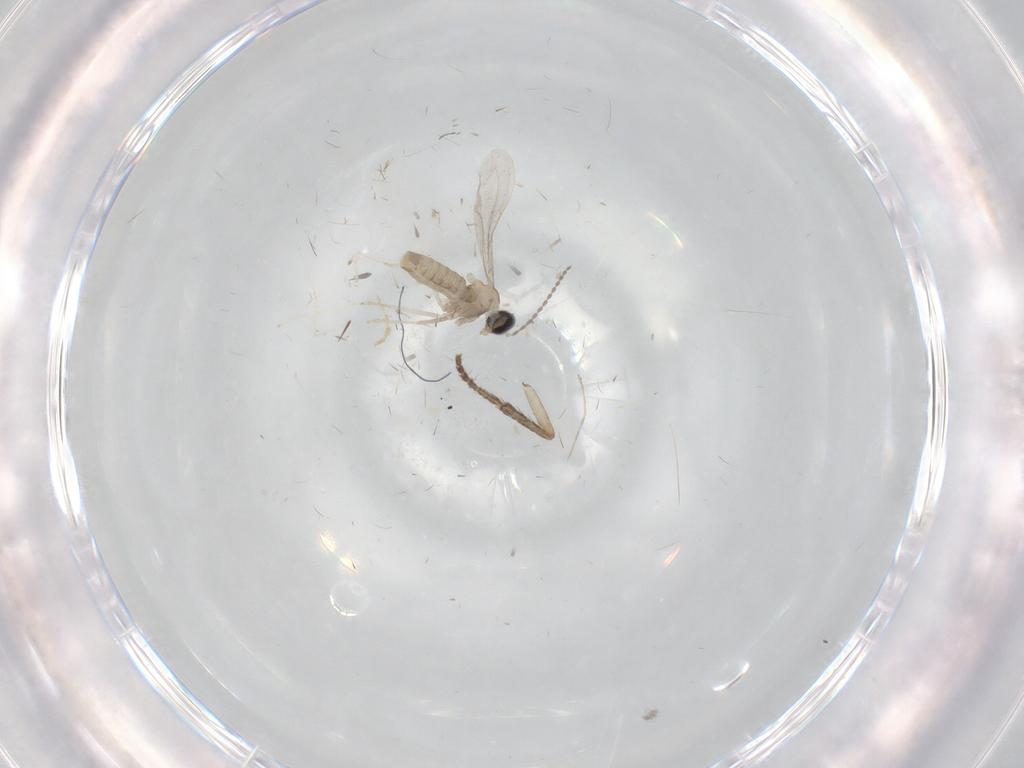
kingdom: Animalia
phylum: Arthropoda
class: Insecta
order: Diptera
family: Cecidomyiidae
